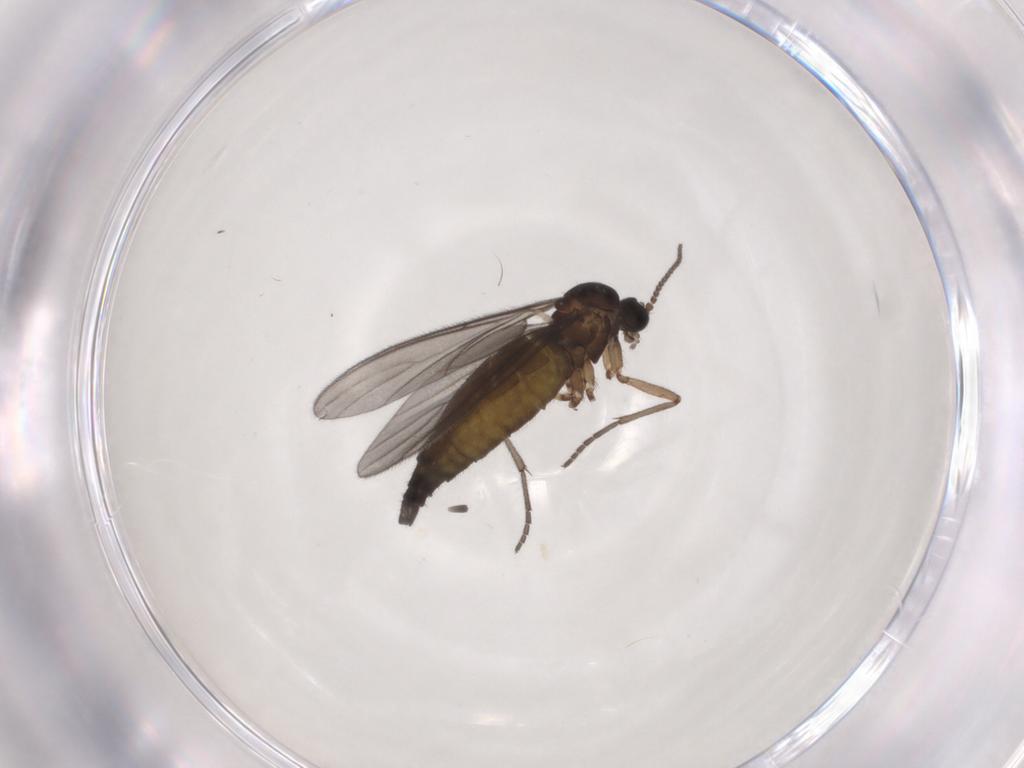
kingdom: Animalia
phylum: Arthropoda
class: Insecta
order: Diptera
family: Sciaridae
